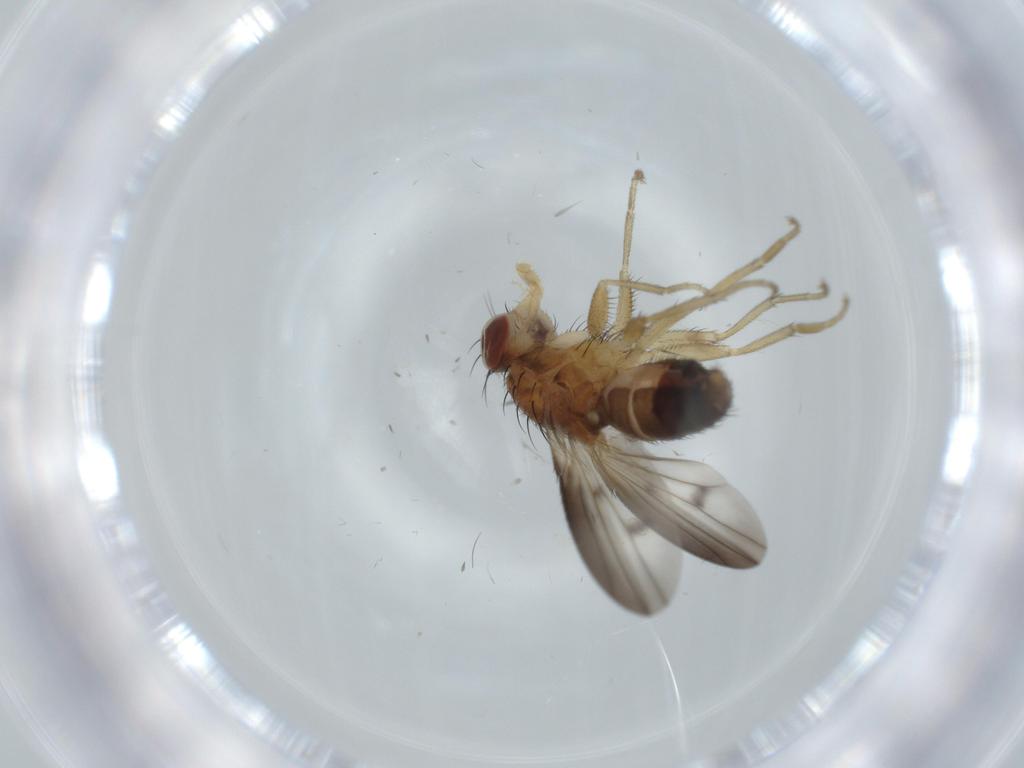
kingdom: Animalia
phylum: Arthropoda
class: Insecta
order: Diptera
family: Heleomyzidae
